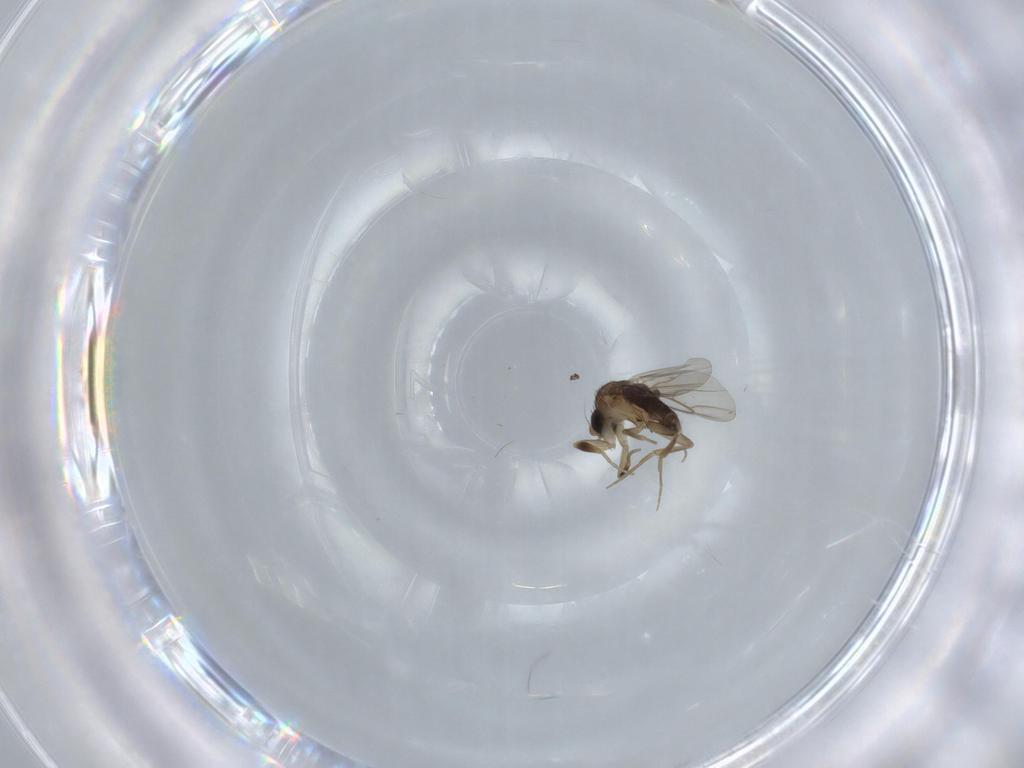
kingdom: Animalia
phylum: Arthropoda
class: Insecta
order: Diptera
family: Phoridae
